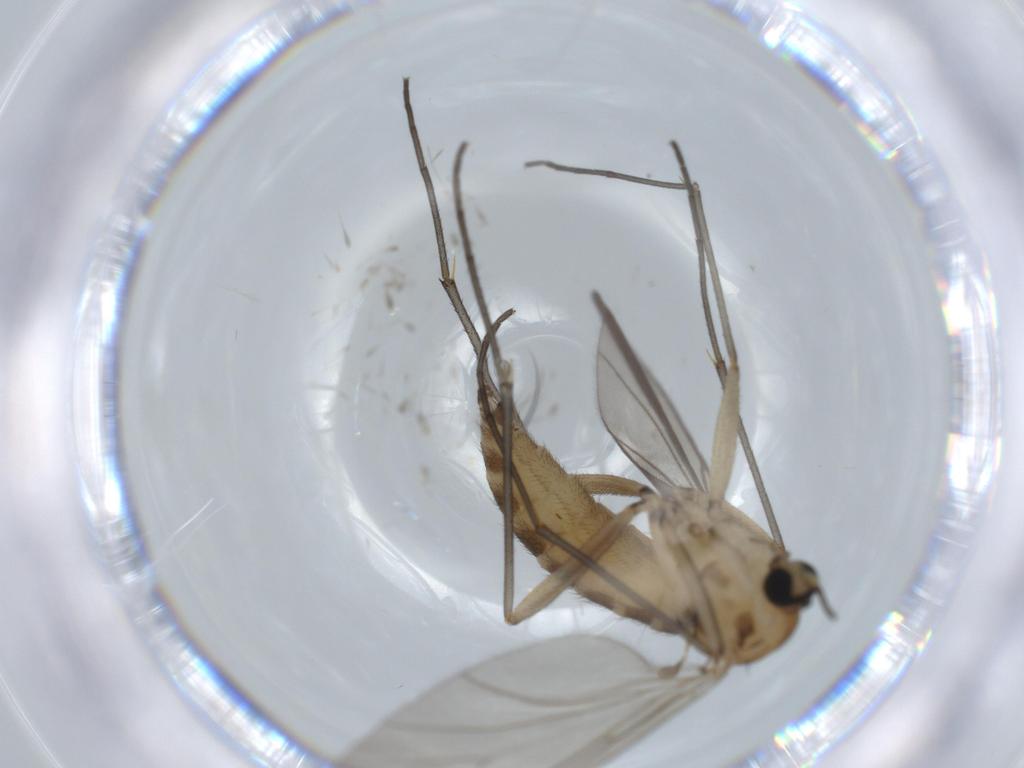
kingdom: Animalia
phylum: Arthropoda
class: Insecta
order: Diptera
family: Sciaridae
